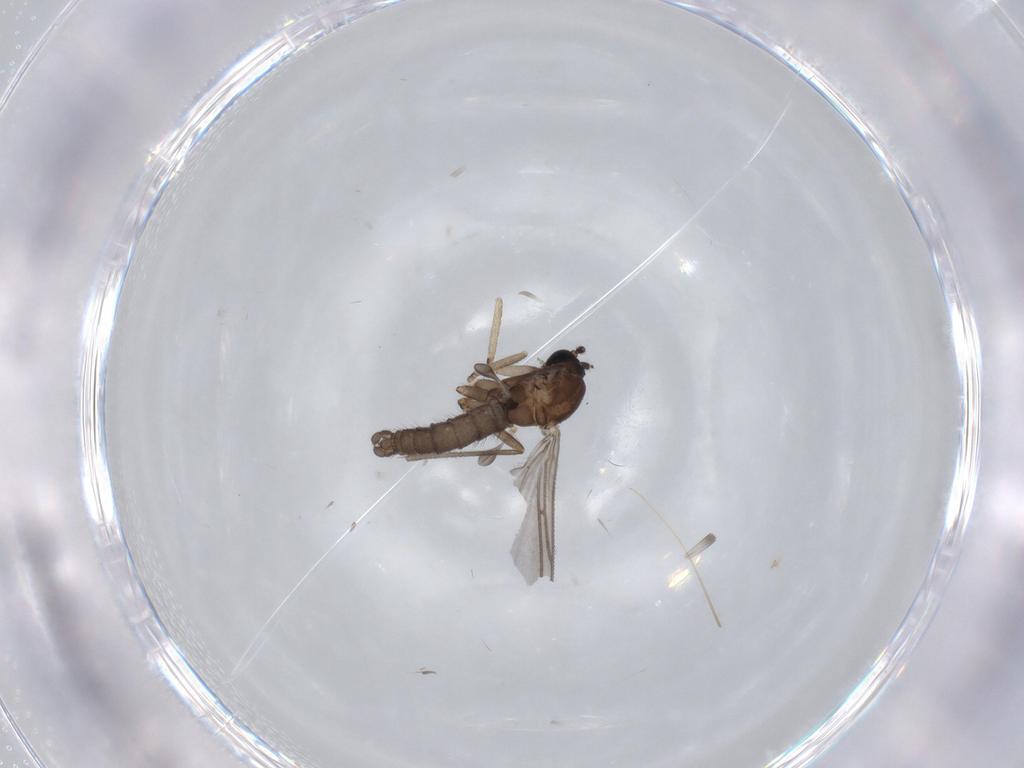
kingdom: Animalia
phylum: Arthropoda
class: Insecta
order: Diptera
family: Sciaridae
